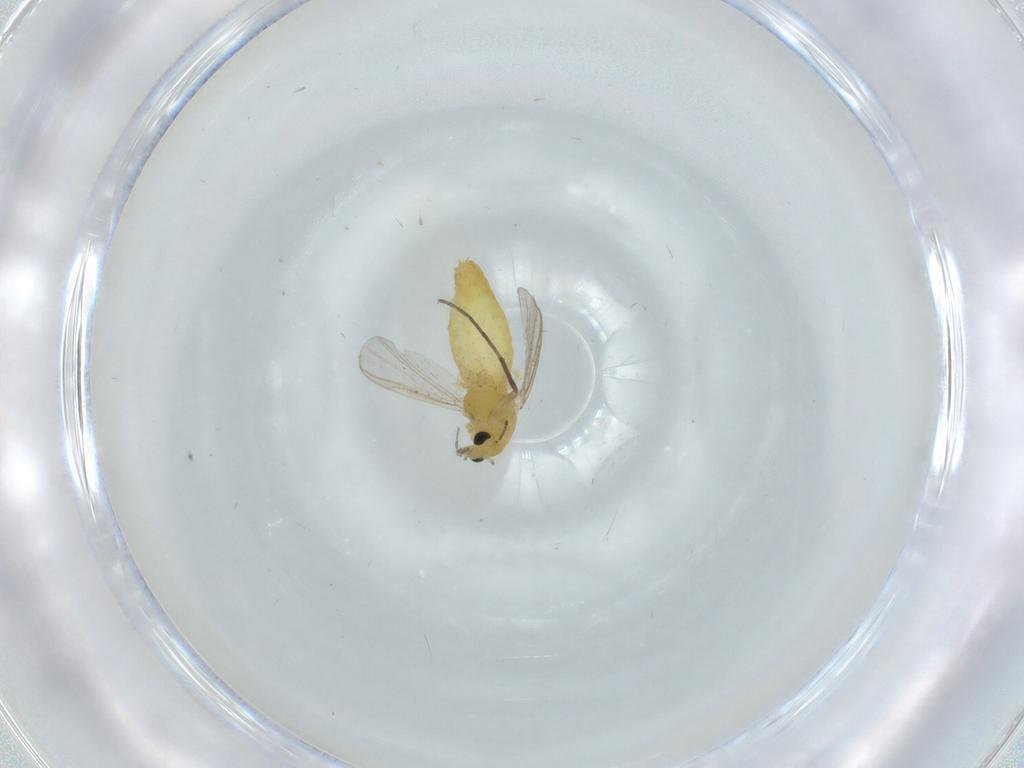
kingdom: Animalia
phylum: Arthropoda
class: Insecta
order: Diptera
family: Chironomidae
